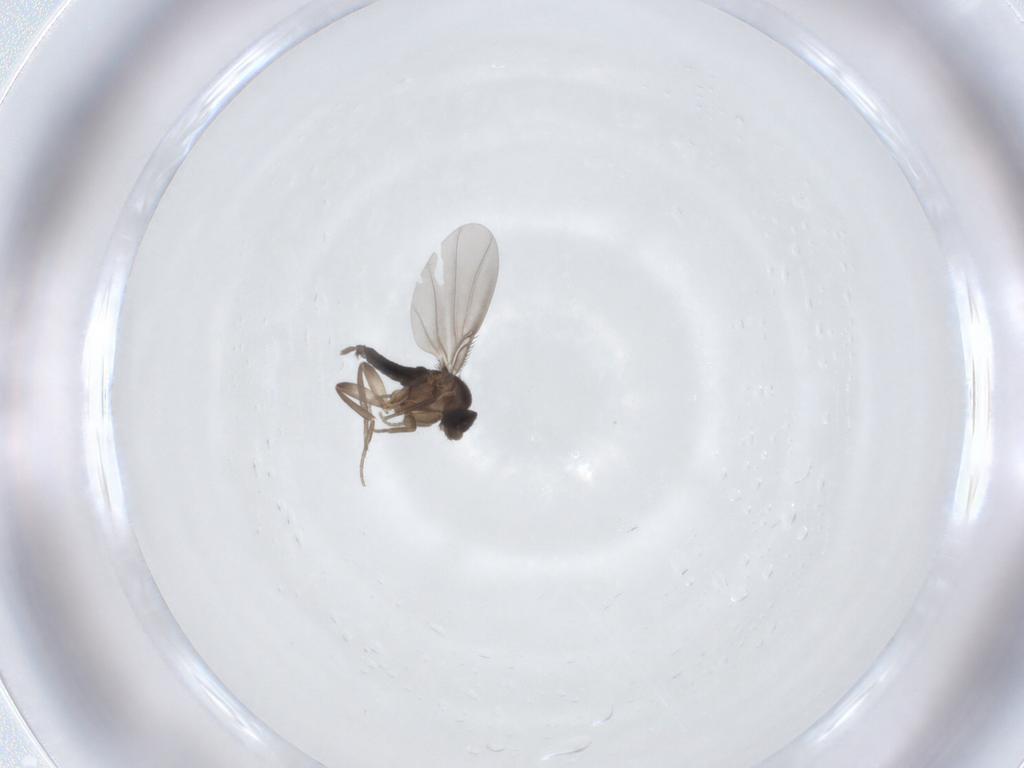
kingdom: Animalia
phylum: Arthropoda
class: Insecta
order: Diptera
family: Phoridae
